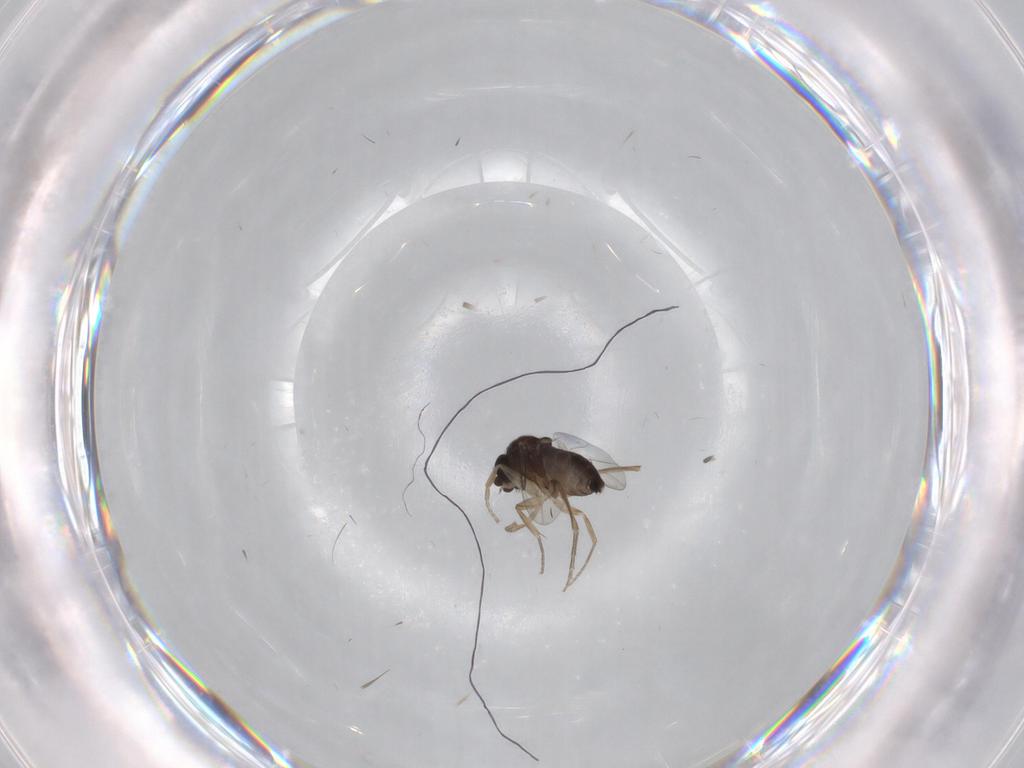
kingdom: Animalia
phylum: Arthropoda
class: Insecta
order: Diptera
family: Phoridae
